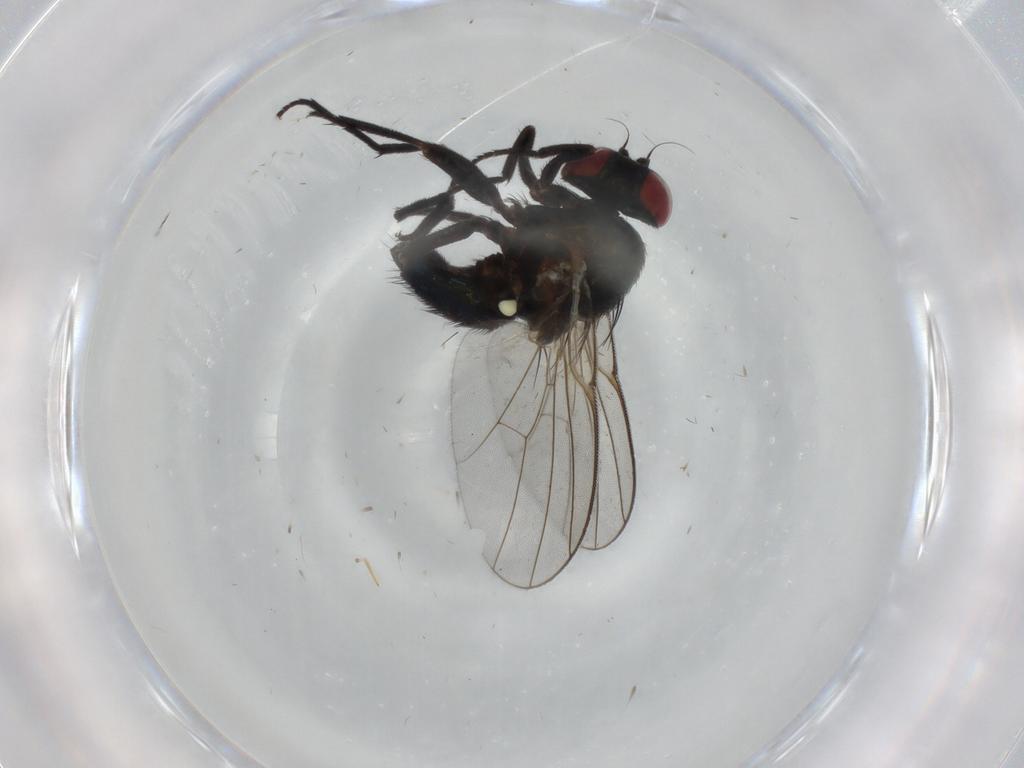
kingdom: Animalia
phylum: Arthropoda
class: Insecta
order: Diptera
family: Agromyzidae
